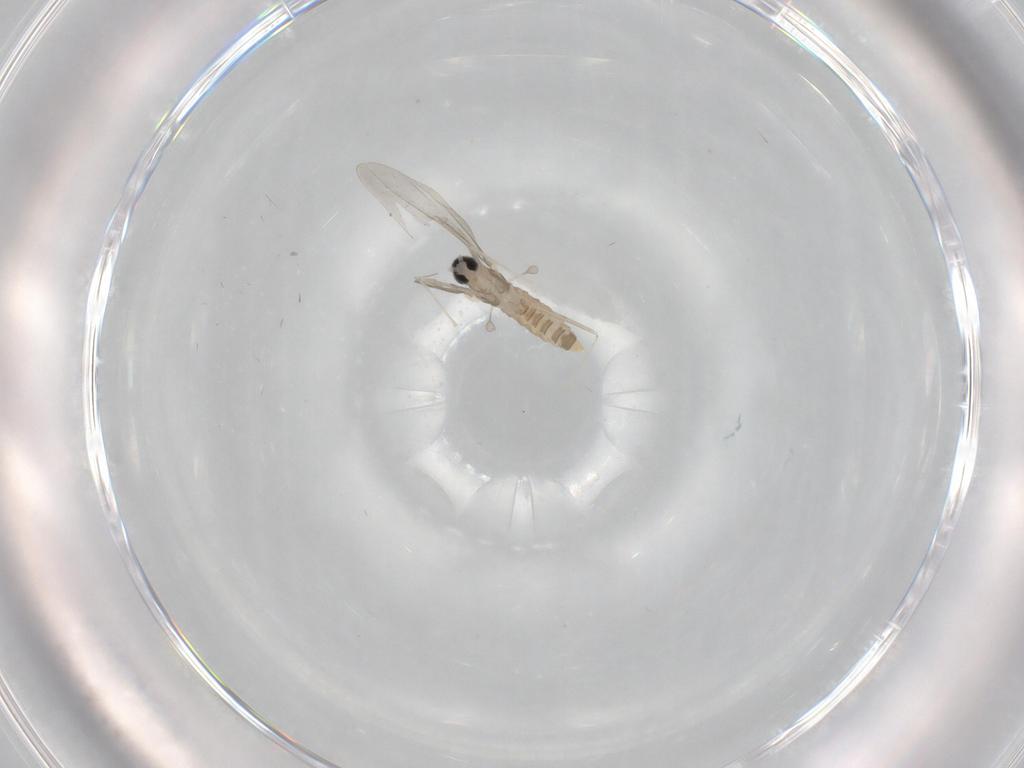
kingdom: Animalia
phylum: Arthropoda
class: Insecta
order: Diptera
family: Cecidomyiidae
